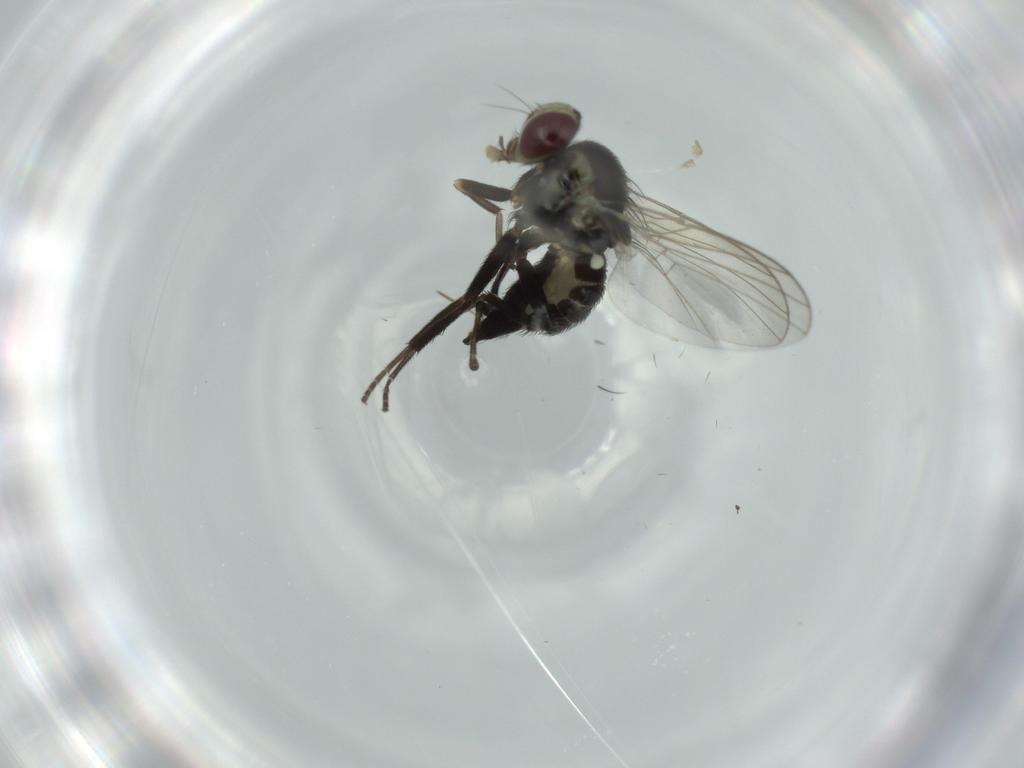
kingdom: Animalia
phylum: Arthropoda
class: Insecta
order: Diptera
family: Agromyzidae
